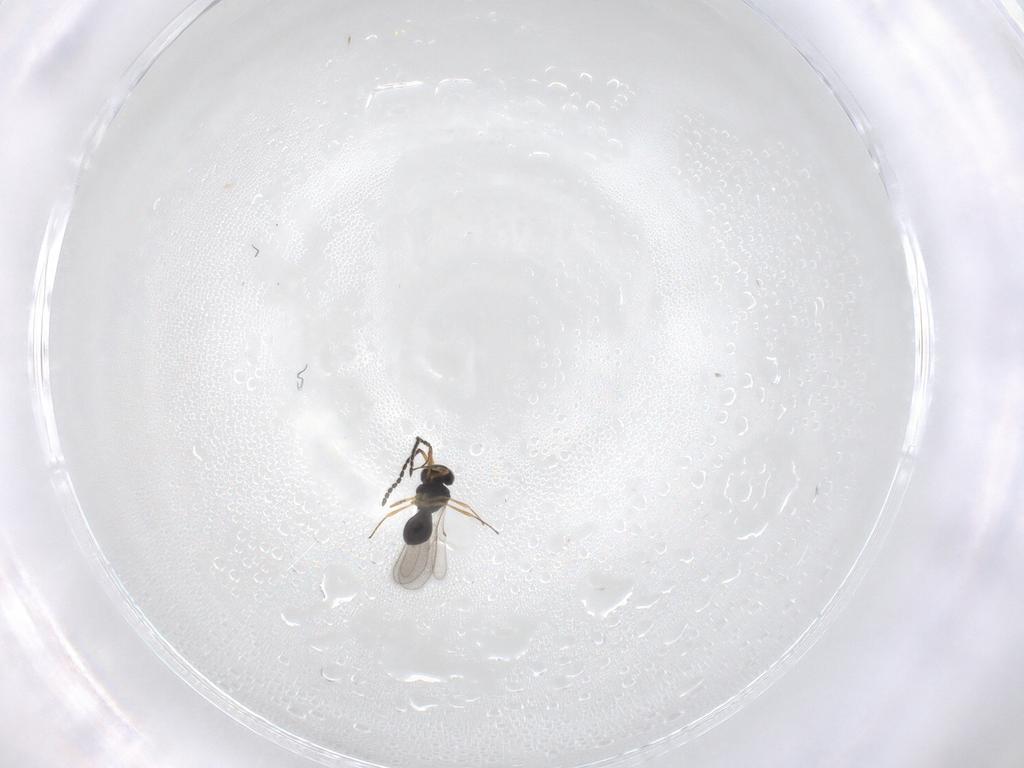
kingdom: Animalia
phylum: Arthropoda
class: Insecta
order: Hymenoptera
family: Scelionidae
